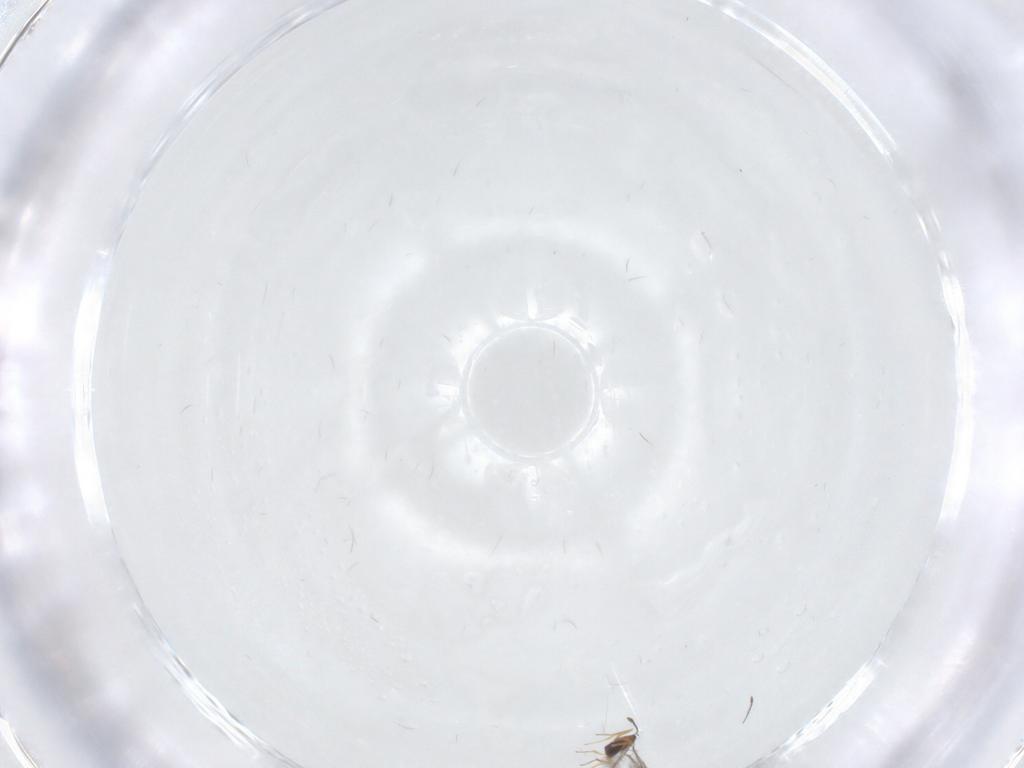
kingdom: Animalia
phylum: Arthropoda
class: Insecta
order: Hymenoptera
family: Mymaridae
